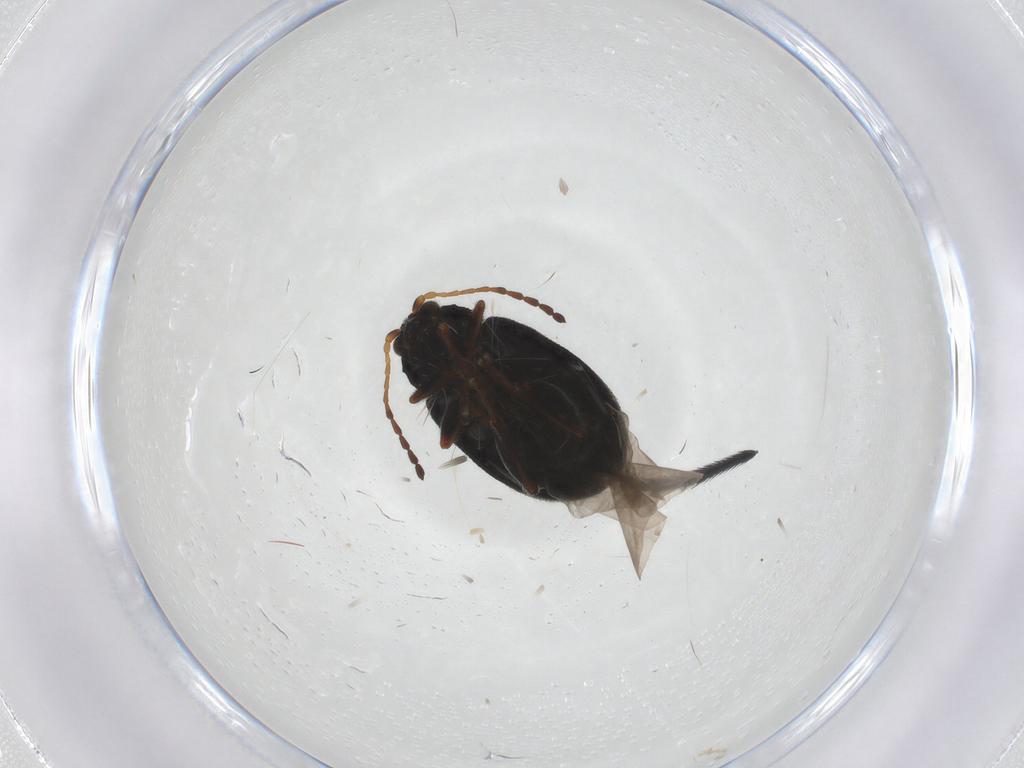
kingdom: Animalia
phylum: Arthropoda
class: Insecta
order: Coleoptera
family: Chrysomelidae
